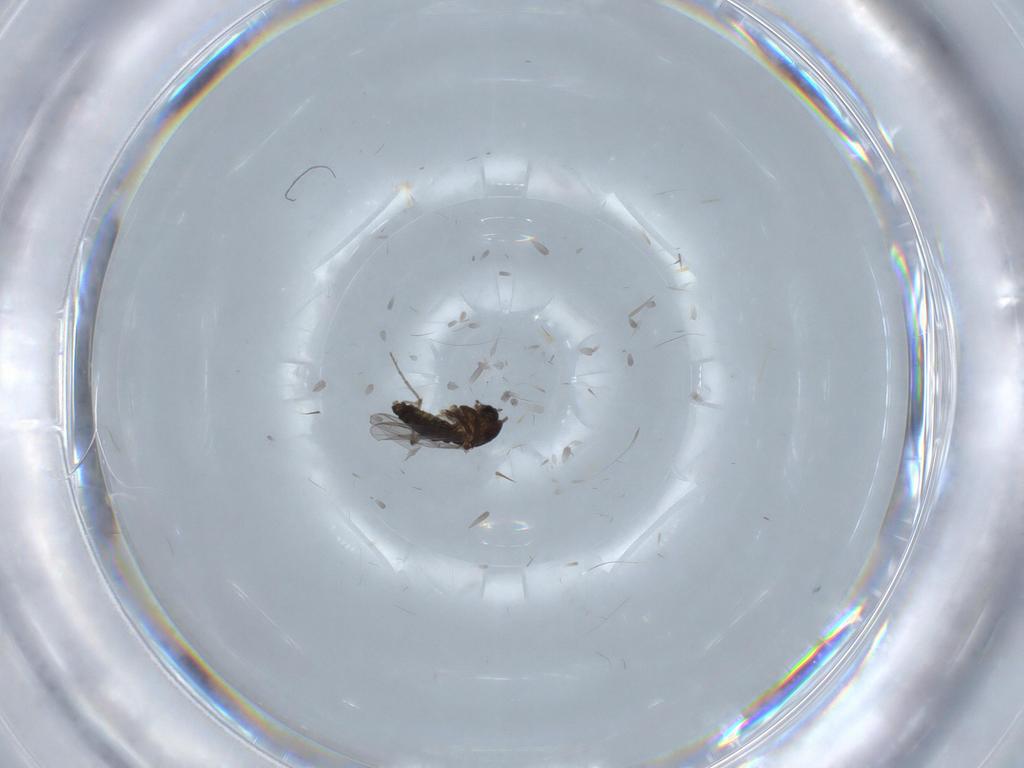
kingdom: Animalia
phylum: Arthropoda
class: Insecta
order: Diptera
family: Chironomidae
